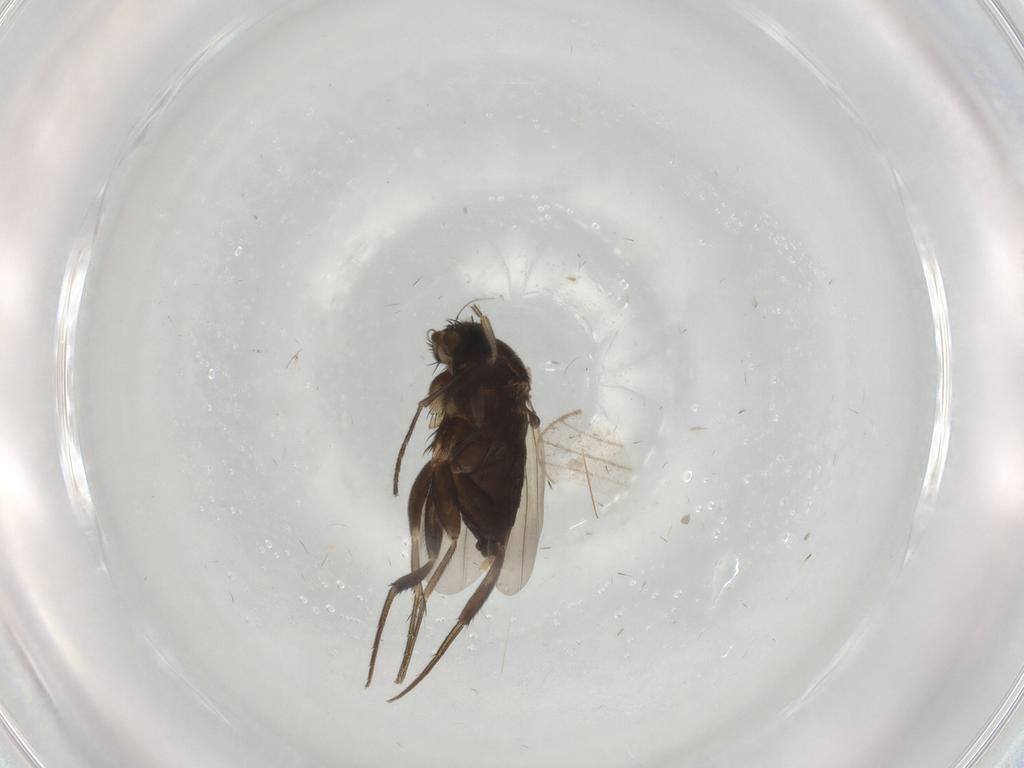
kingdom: Animalia
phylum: Arthropoda
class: Insecta
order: Diptera
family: Phoridae
